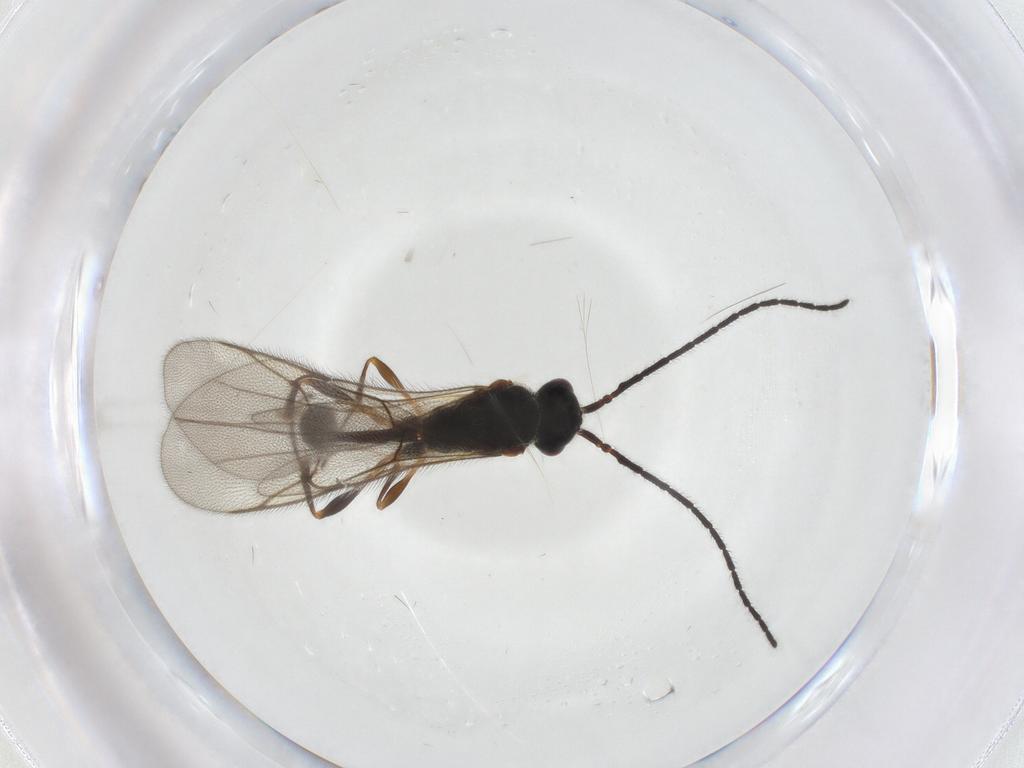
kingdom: Animalia
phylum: Arthropoda
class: Insecta
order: Hymenoptera
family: Diapriidae
